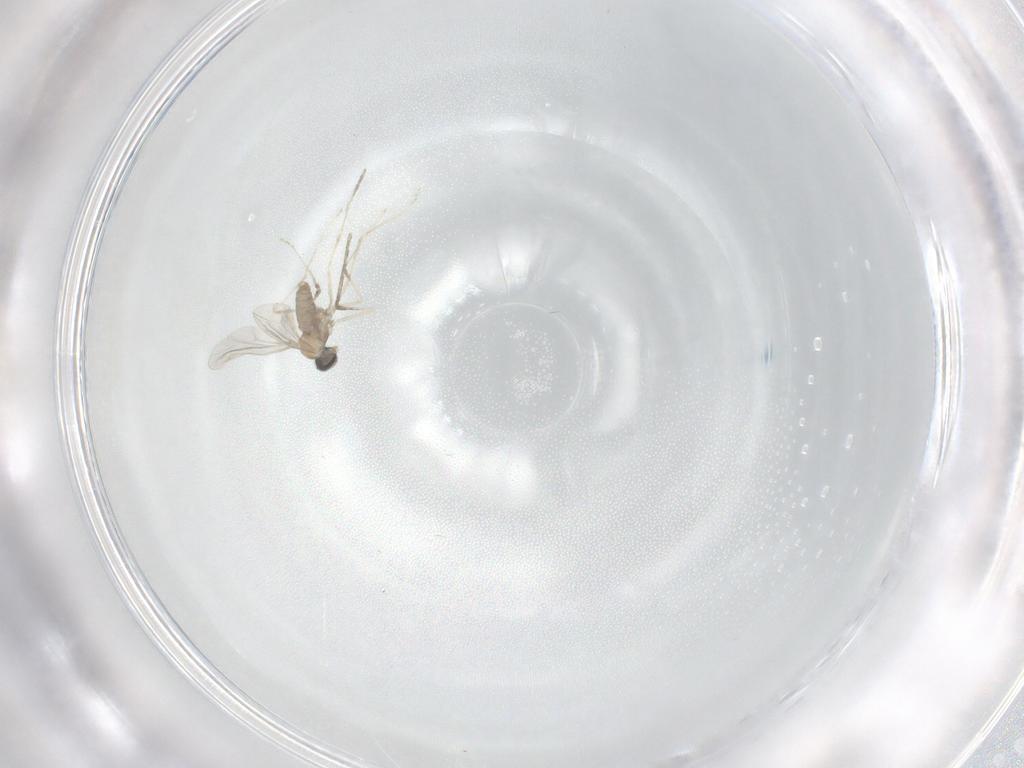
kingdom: Animalia
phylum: Arthropoda
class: Insecta
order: Diptera
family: Cecidomyiidae
